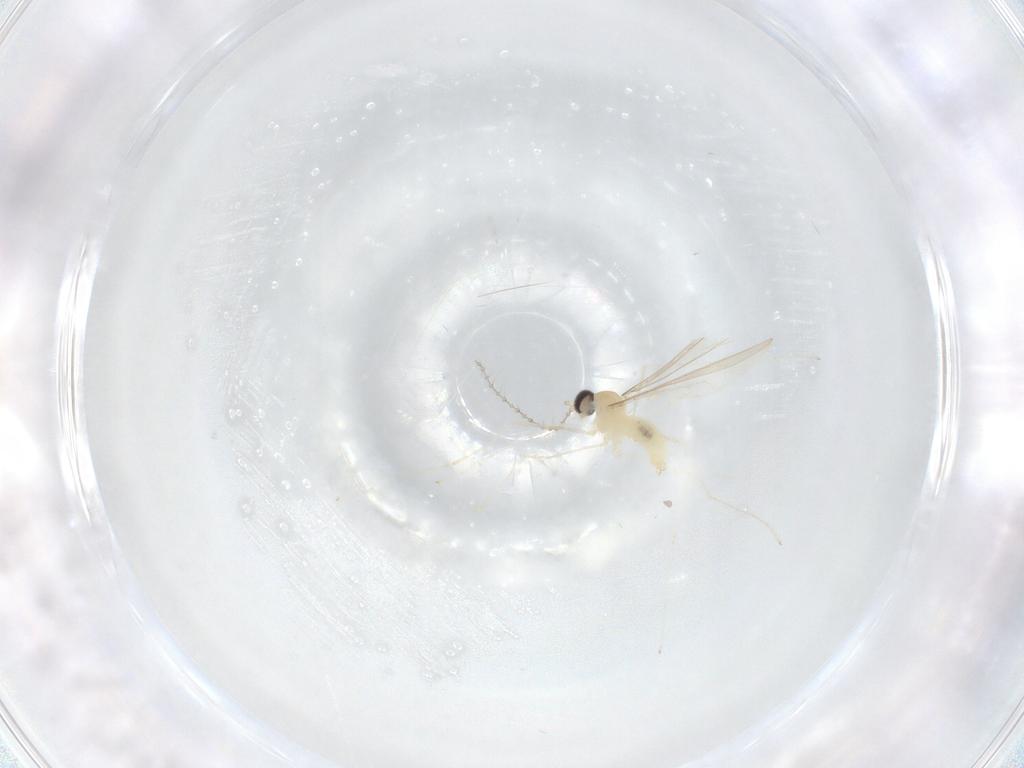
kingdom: Animalia
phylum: Arthropoda
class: Insecta
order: Diptera
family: Cecidomyiidae
